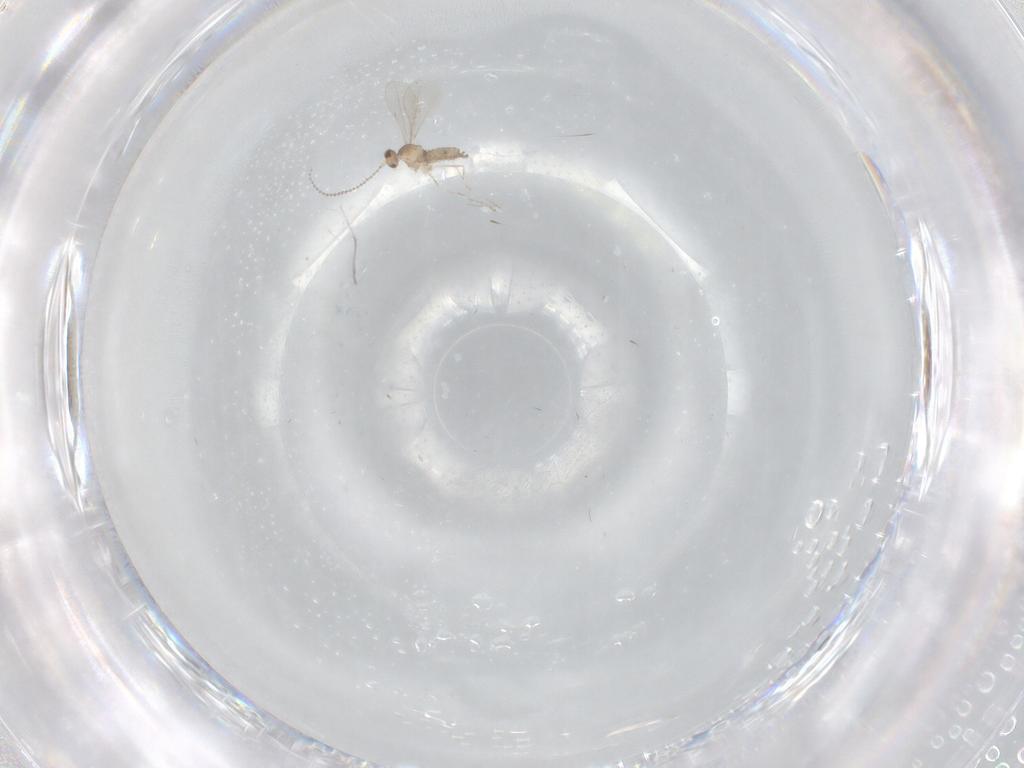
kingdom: Animalia
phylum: Arthropoda
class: Insecta
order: Diptera
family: Cecidomyiidae
